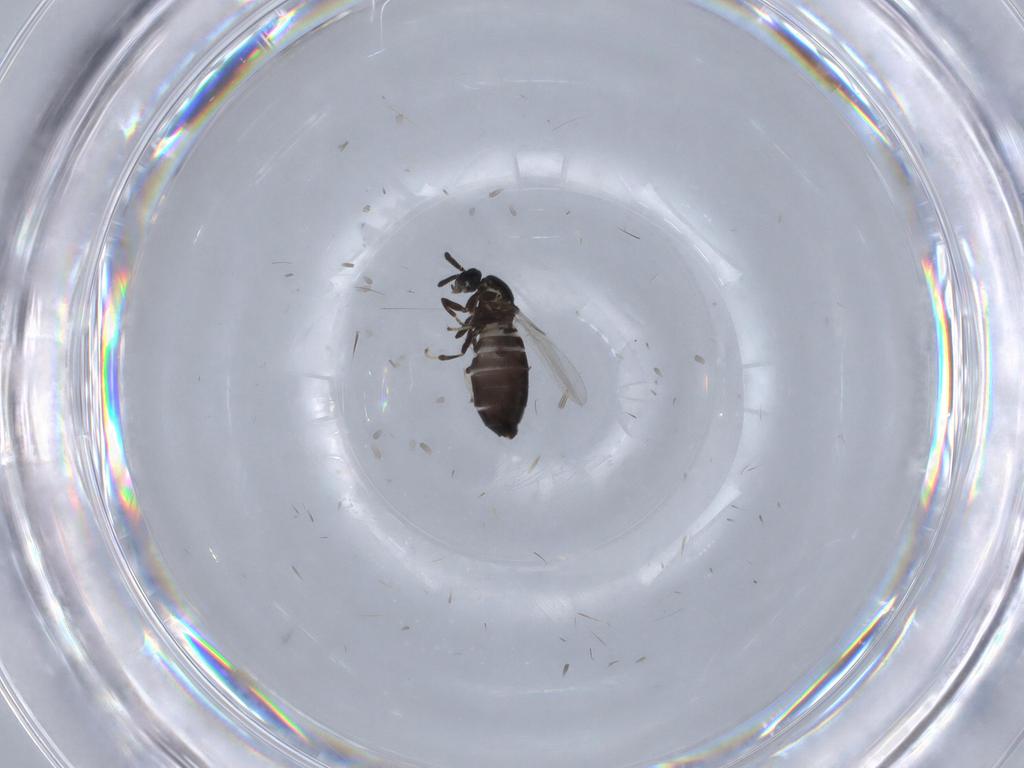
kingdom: Animalia
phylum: Arthropoda
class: Insecta
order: Diptera
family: Scatopsidae
